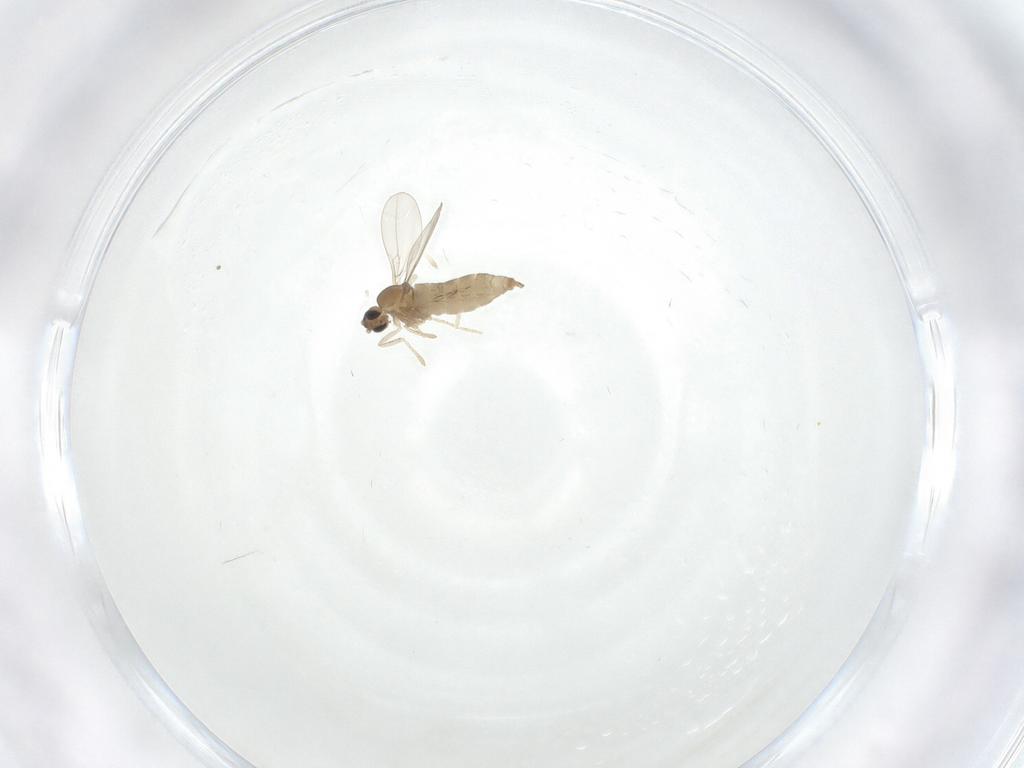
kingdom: Animalia
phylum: Arthropoda
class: Insecta
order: Diptera
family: Cecidomyiidae
